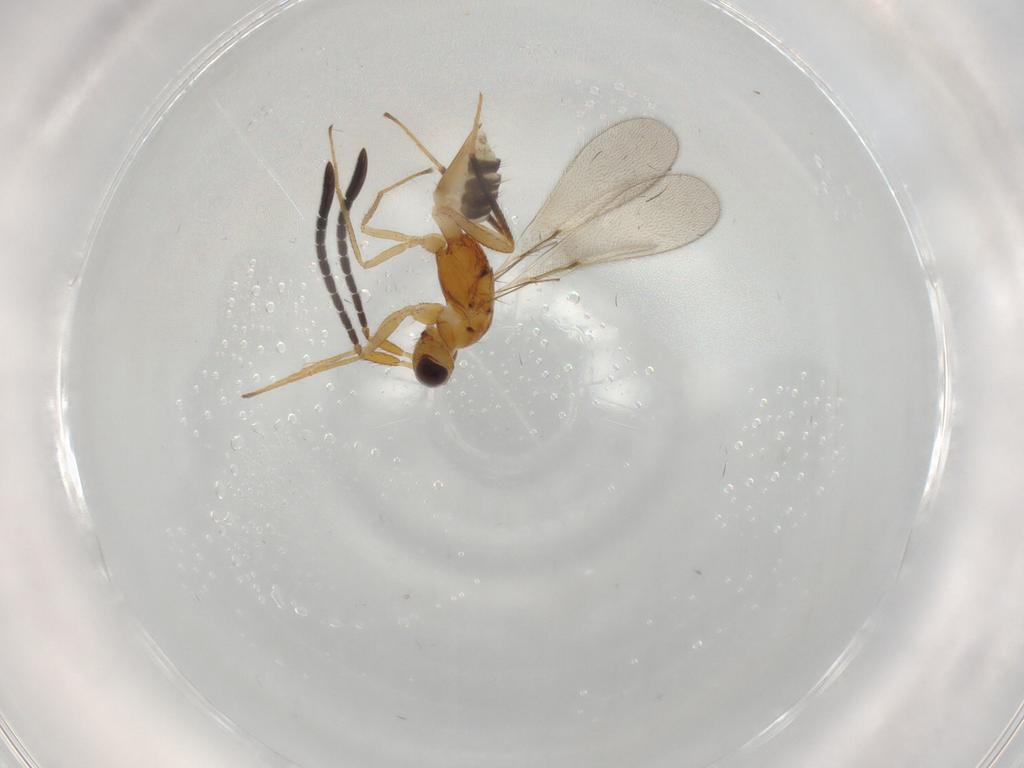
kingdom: Animalia
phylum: Arthropoda
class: Insecta
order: Hymenoptera
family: Mymaridae
